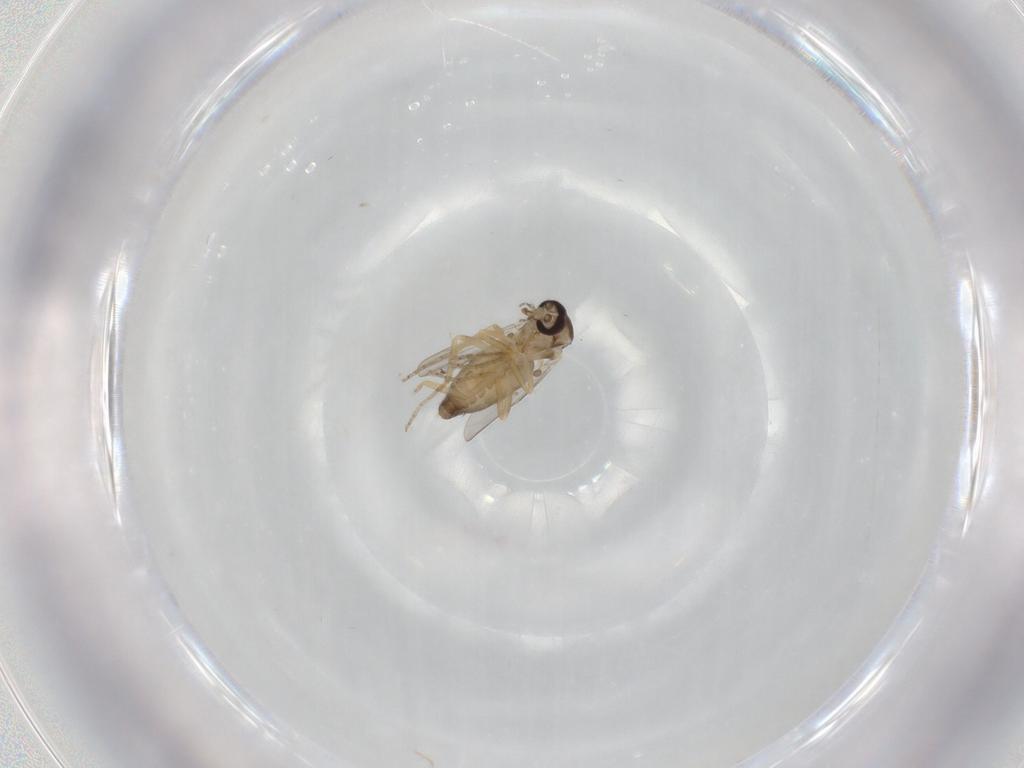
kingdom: Animalia
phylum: Arthropoda
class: Insecta
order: Diptera
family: Ceratopogonidae
